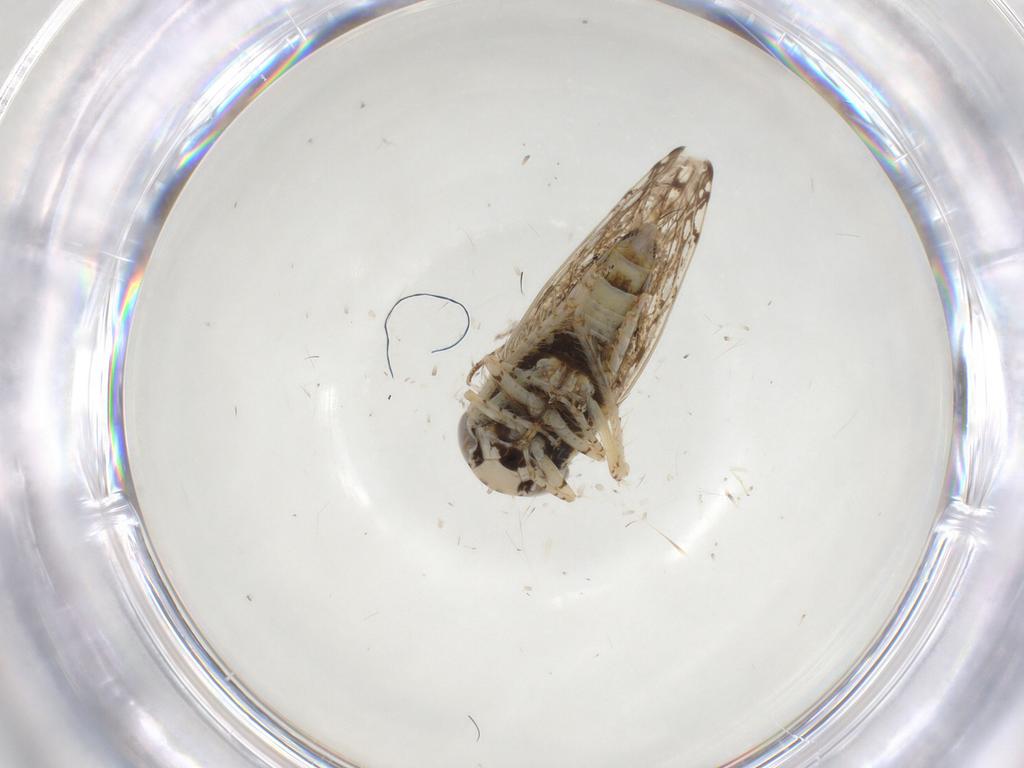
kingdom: Animalia
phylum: Arthropoda
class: Insecta
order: Hemiptera
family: Cicadellidae
